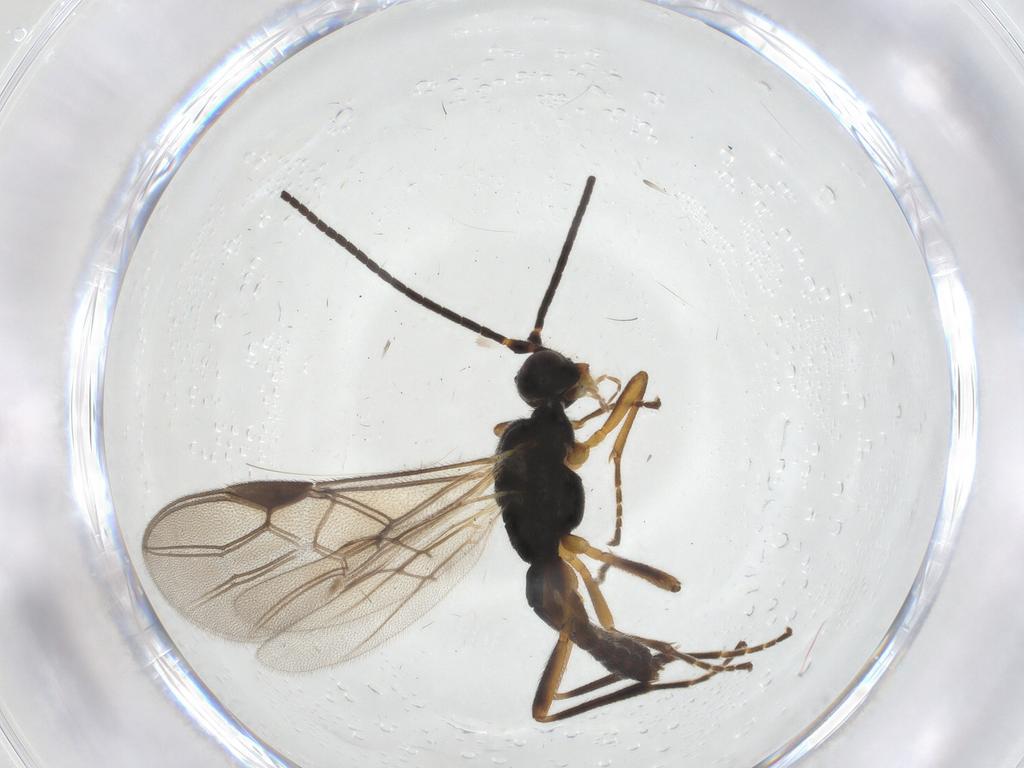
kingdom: Animalia
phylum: Arthropoda
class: Insecta
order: Hymenoptera
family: Braconidae
